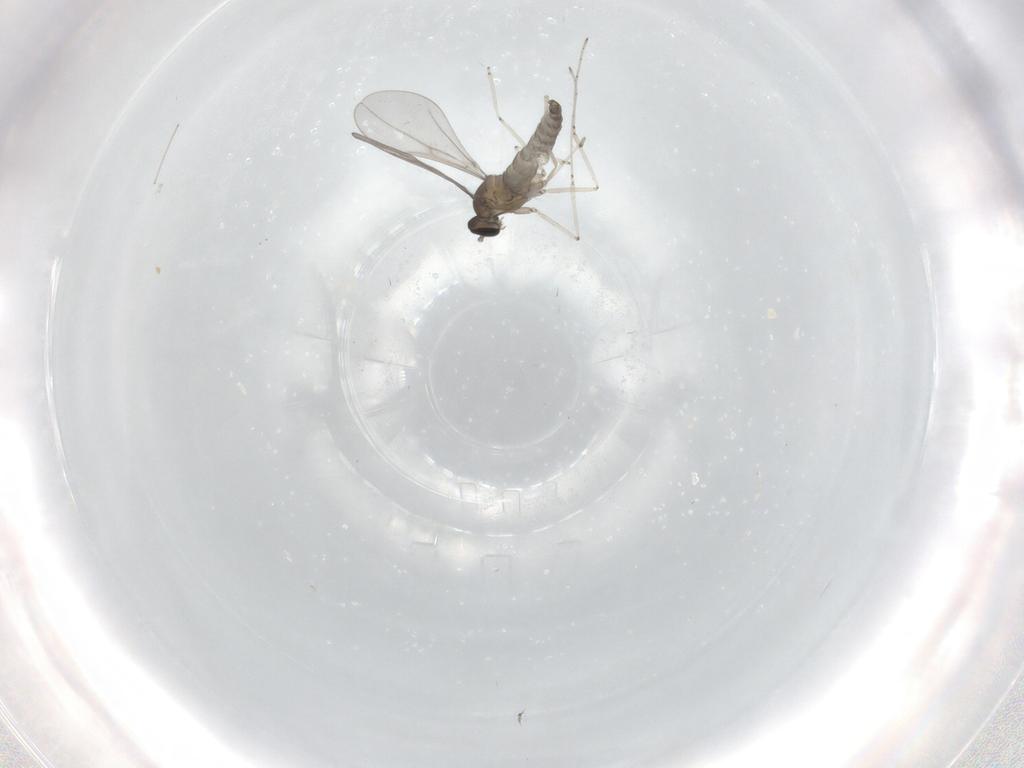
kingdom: Animalia
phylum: Arthropoda
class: Insecta
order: Diptera
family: Cecidomyiidae
